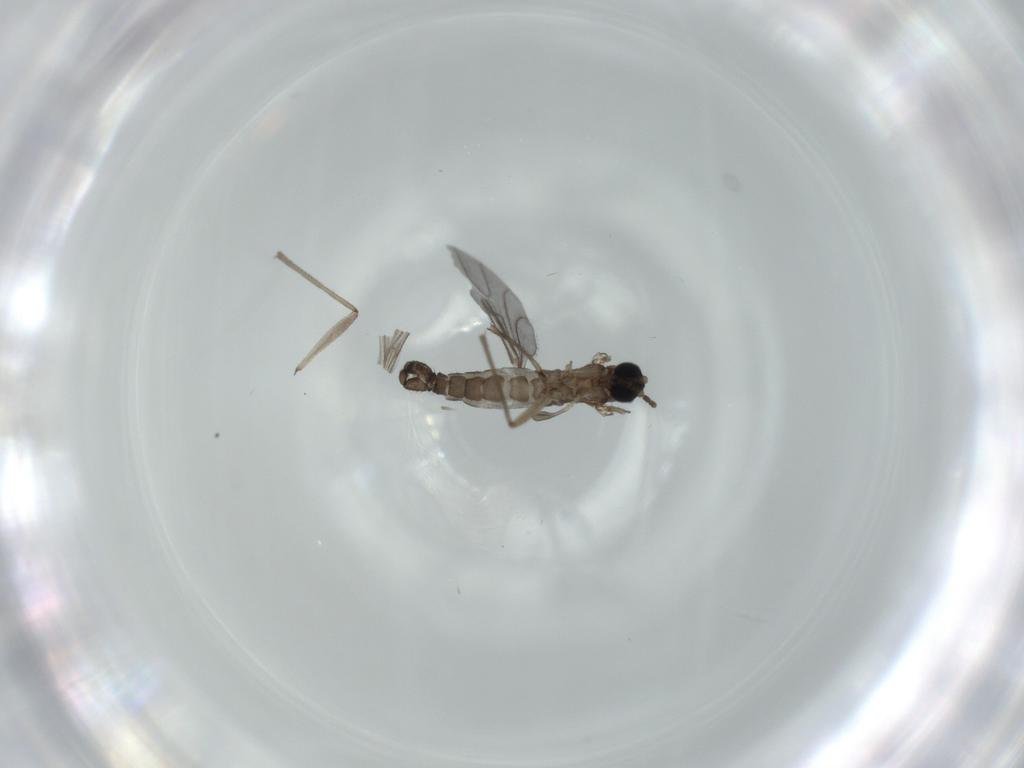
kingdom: Animalia
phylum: Arthropoda
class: Insecta
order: Diptera
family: Sciaridae
